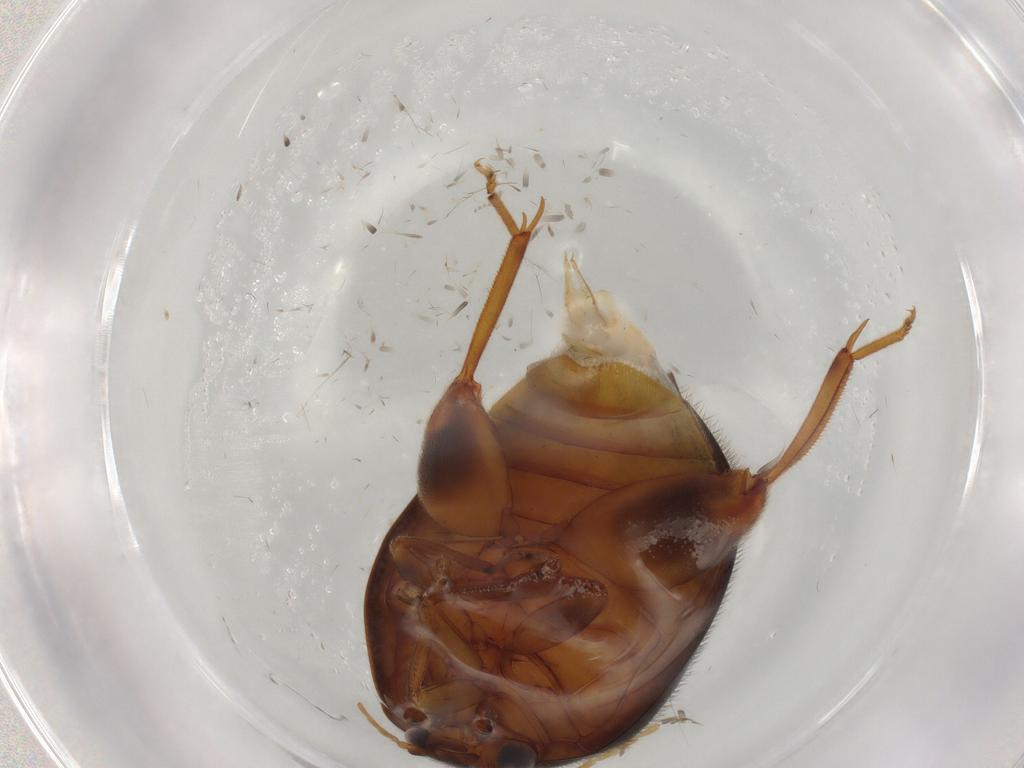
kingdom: Animalia
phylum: Arthropoda
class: Insecta
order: Coleoptera
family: Scirtidae
